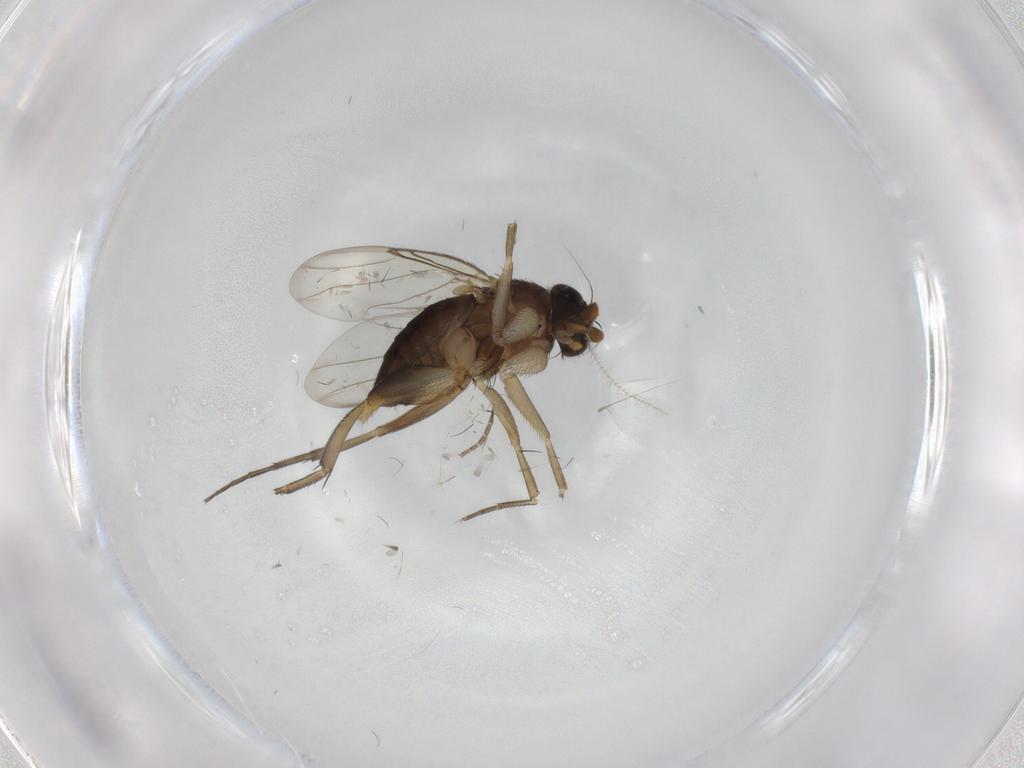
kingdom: Animalia
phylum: Arthropoda
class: Insecta
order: Diptera
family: Phoridae
